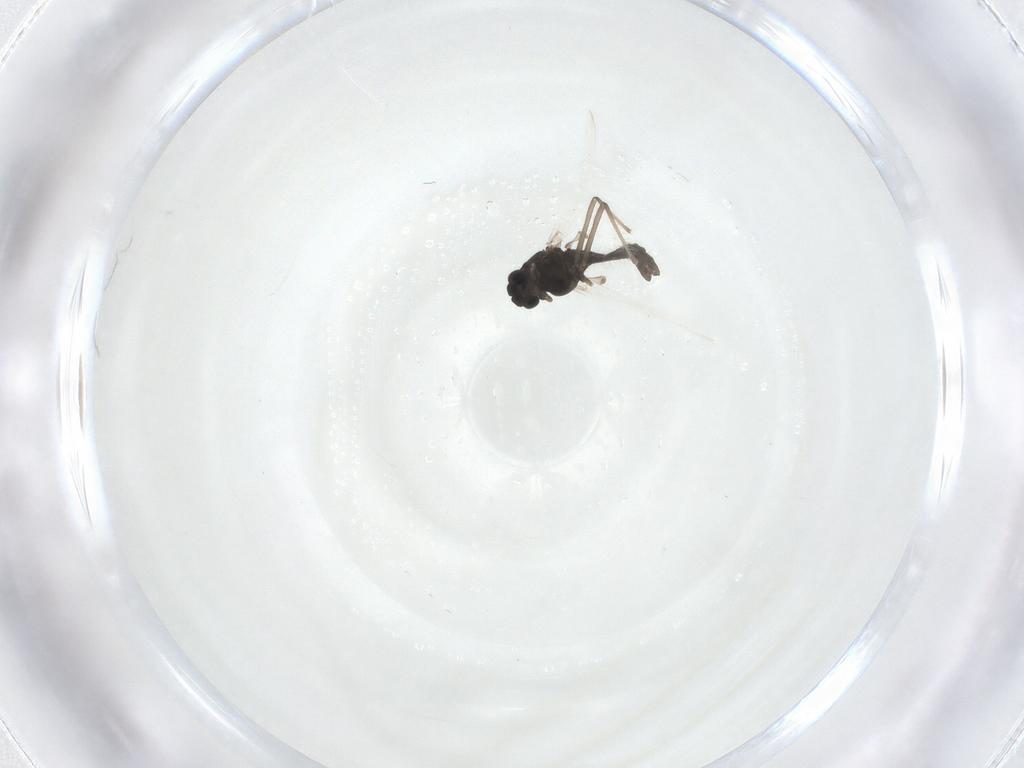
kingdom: Animalia
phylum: Arthropoda
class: Insecta
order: Diptera
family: Chironomidae
